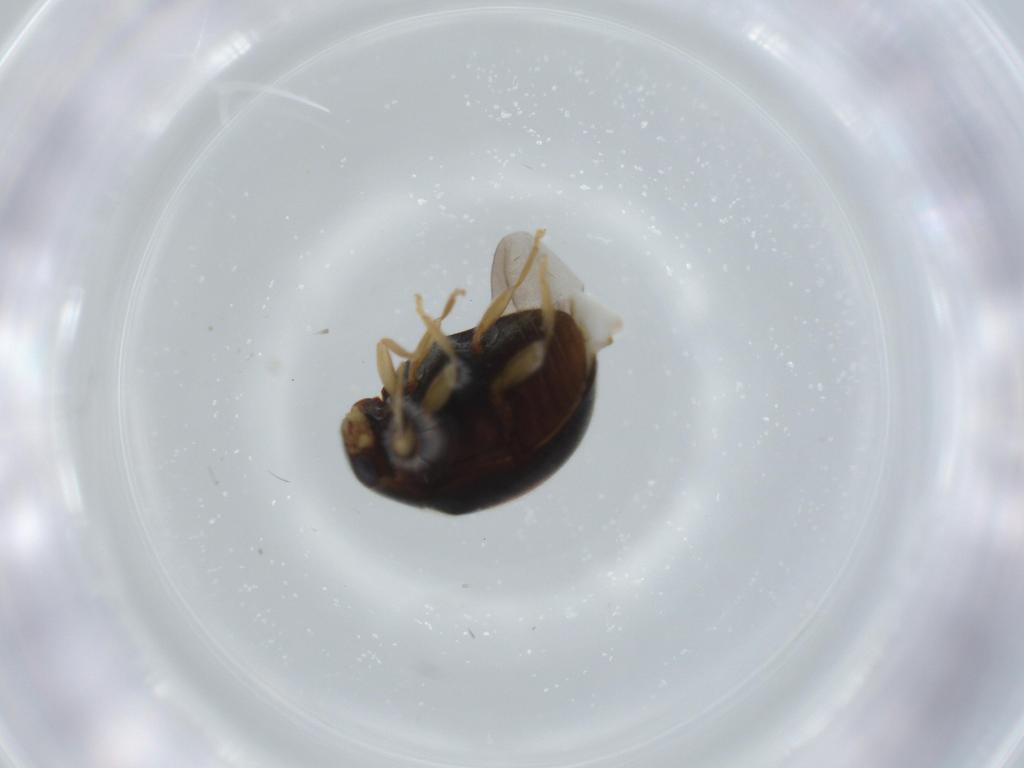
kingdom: Animalia
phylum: Arthropoda
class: Insecta
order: Coleoptera
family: Coccinellidae
